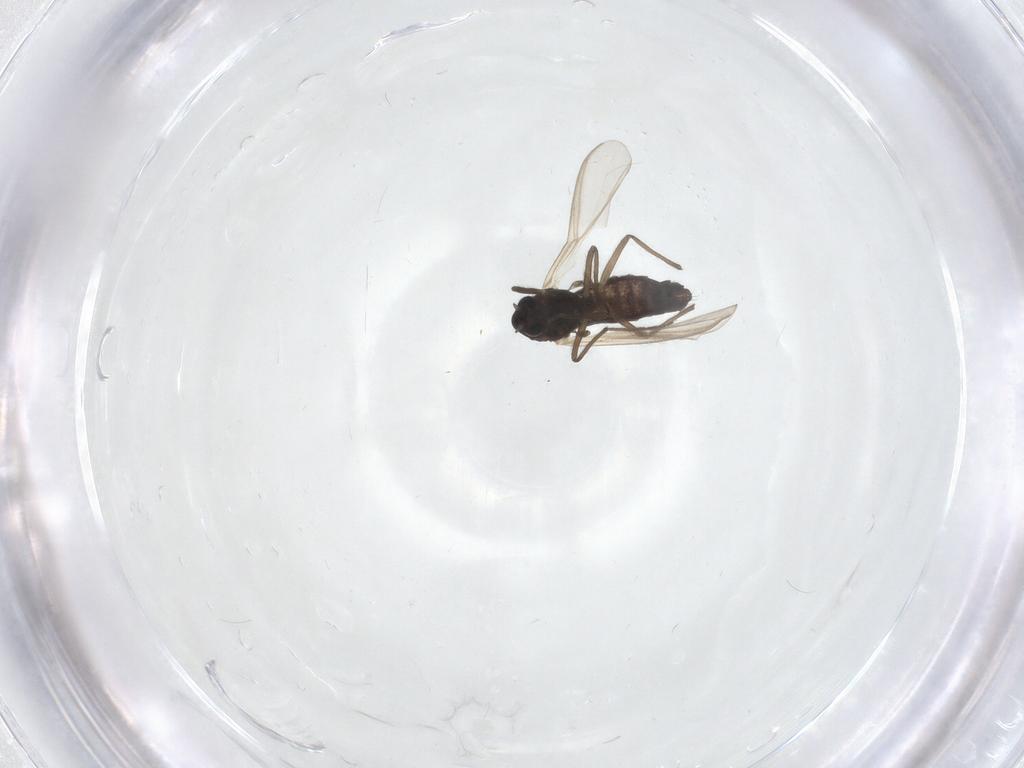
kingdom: Animalia
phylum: Arthropoda
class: Insecta
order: Diptera
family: Chironomidae
